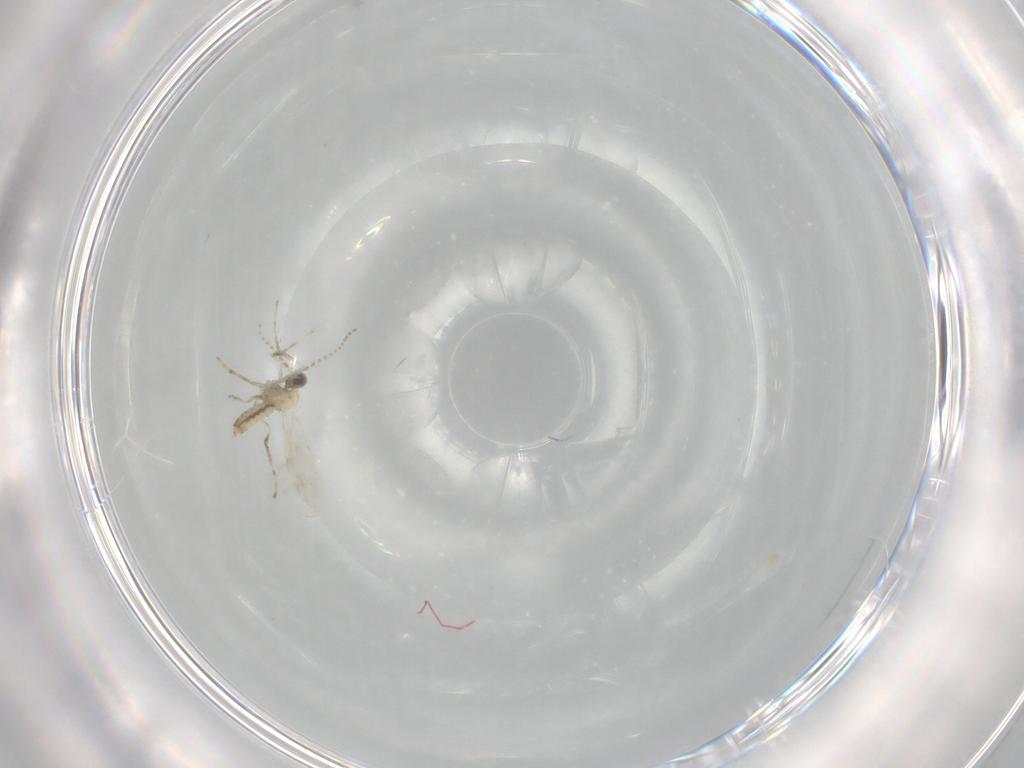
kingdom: Animalia
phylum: Arthropoda
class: Insecta
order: Diptera
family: Cecidomyiidae
